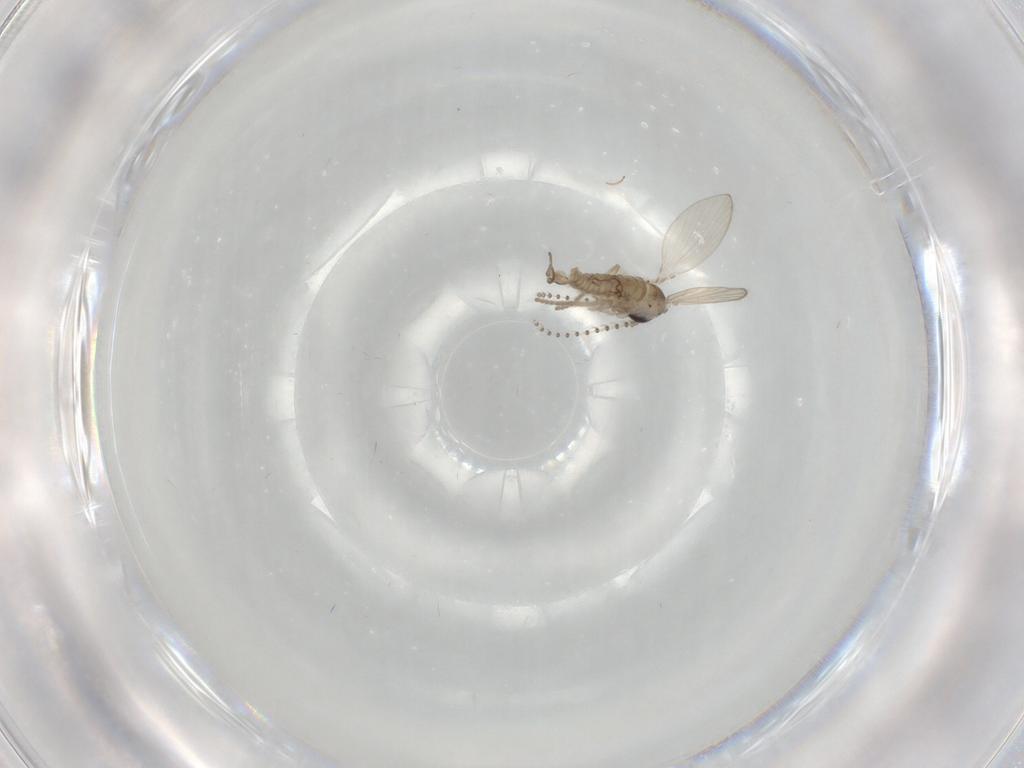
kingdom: Animalia
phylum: Arthropoda
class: Insecta
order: Diptera
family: Psychodidae
